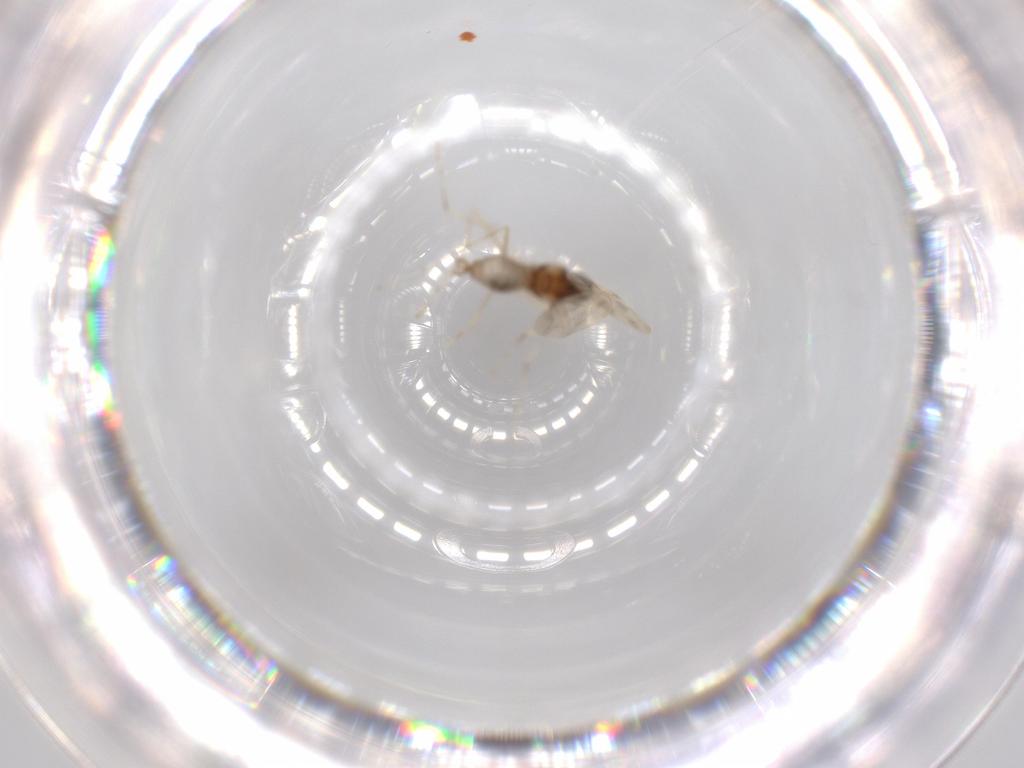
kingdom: Animalia
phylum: Arthropoda
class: Insecta
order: Diptera
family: Cecidomyiidae
